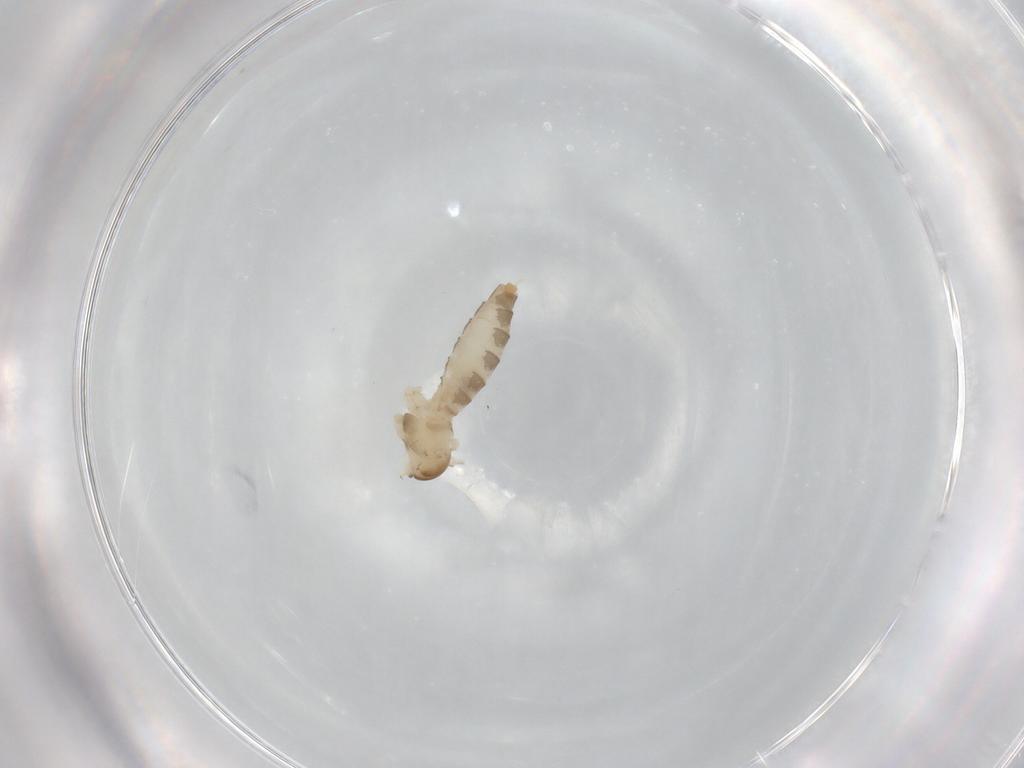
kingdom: Animalia
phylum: Arthropoda
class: Insecta
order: Diptera
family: Cecidomyiidae
